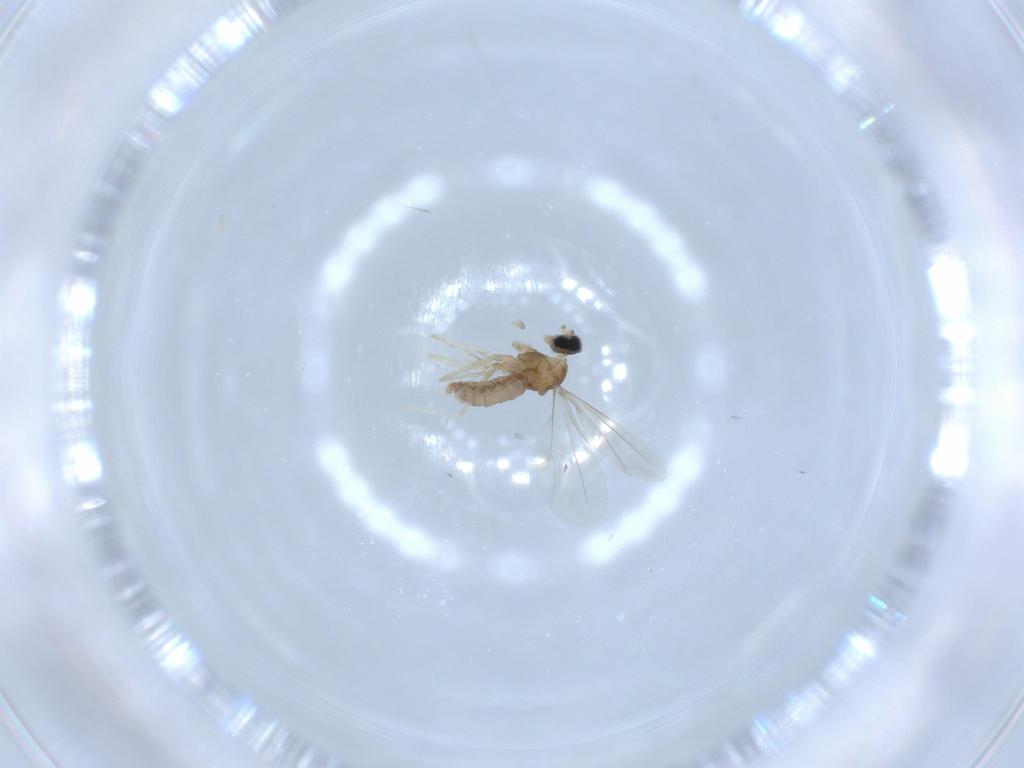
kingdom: Animalia
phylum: Arthropoda
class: Insecta
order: Diptera
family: Cecidomyiidae
